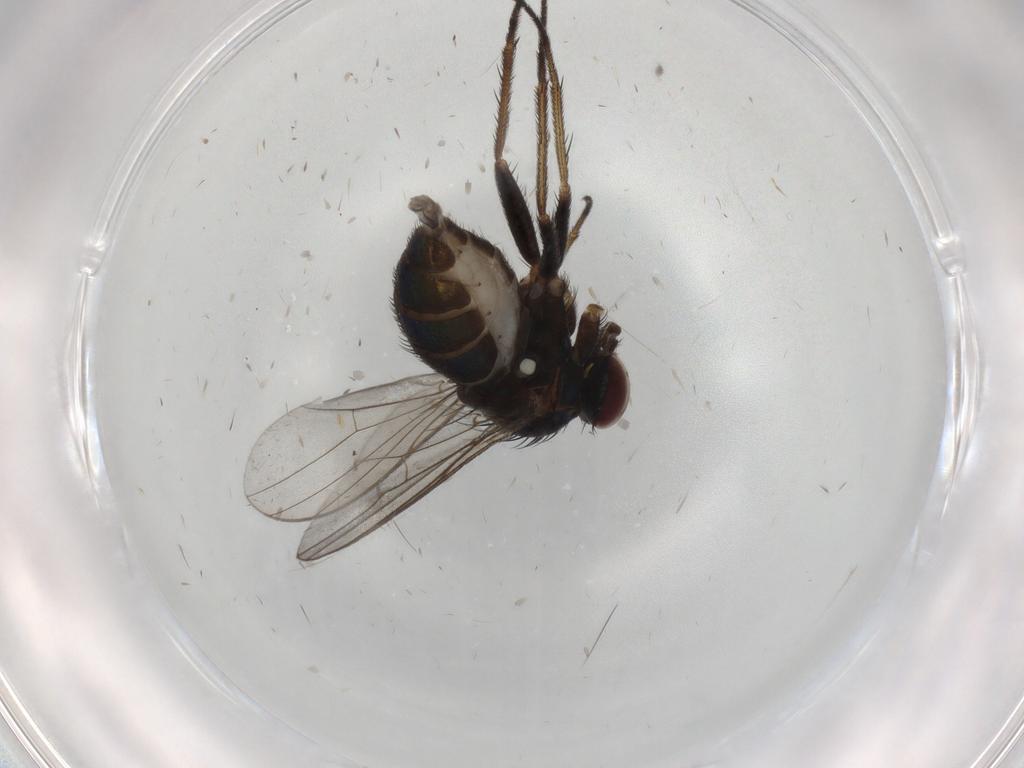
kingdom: Animalia
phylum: Arthropoda
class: Insecta
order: Diptera
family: Dolichopodidae
